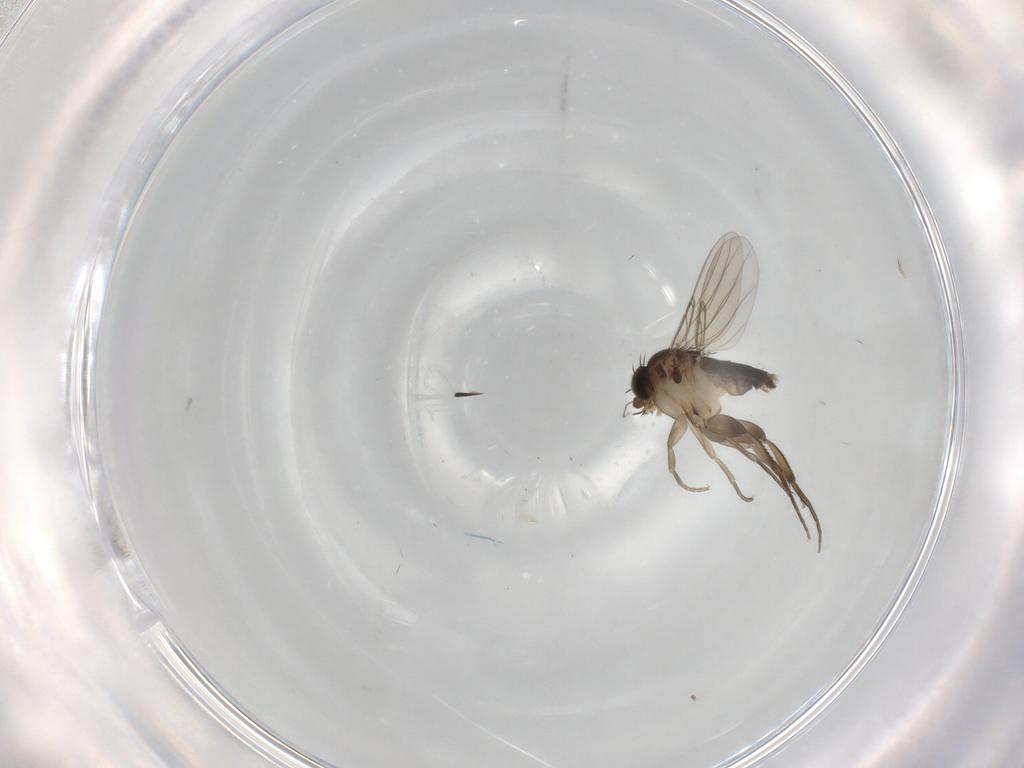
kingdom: Animalia
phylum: Arthropoda
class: Insecta
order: Diptera
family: Phoridae
